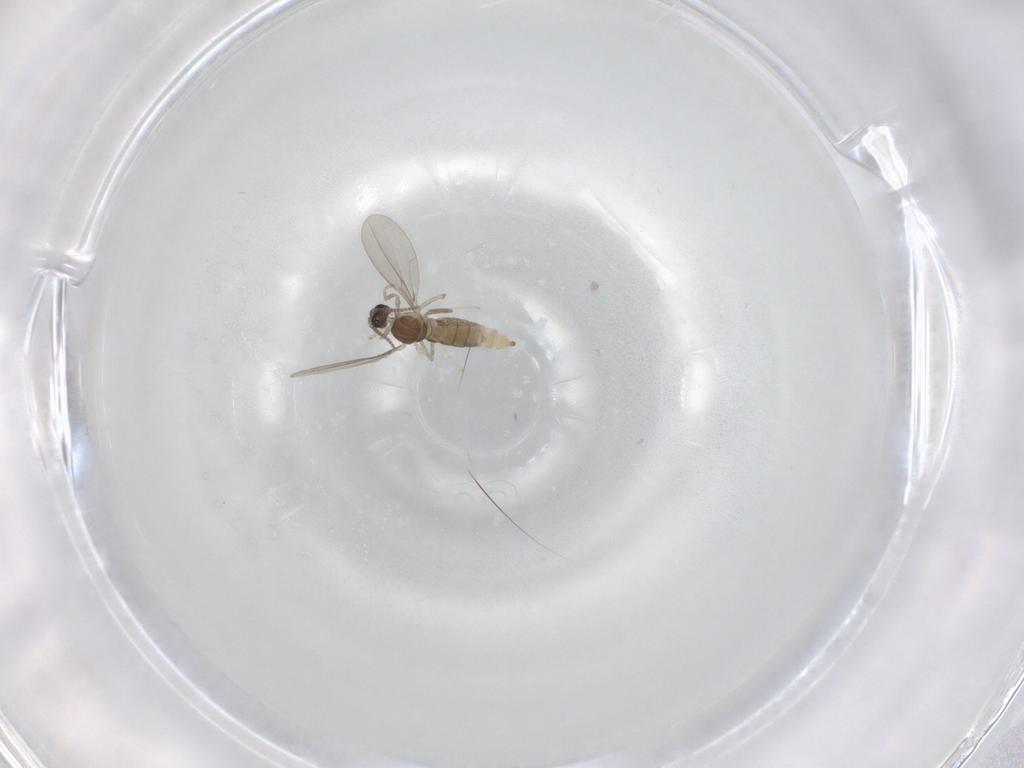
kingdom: Animalia
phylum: Arthropoda
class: Insecta
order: Diptera
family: Cecidomyiidae
